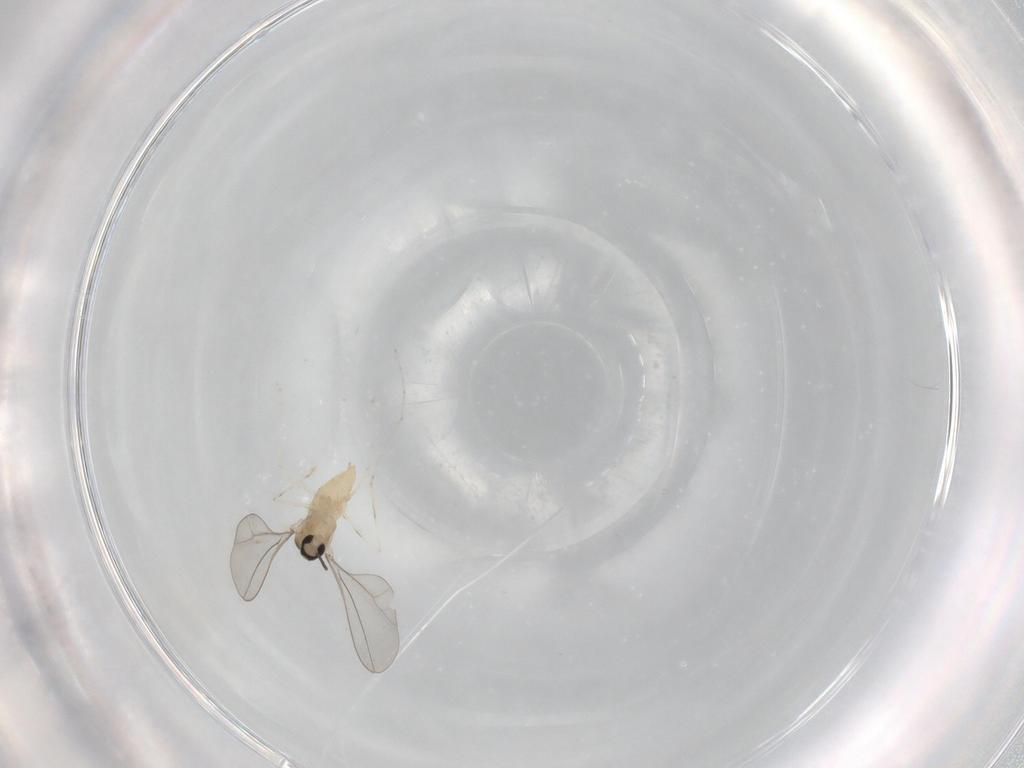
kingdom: Animalia
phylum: Arthropoda
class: Insecta
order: Diptera
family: Cecidomyiidae
